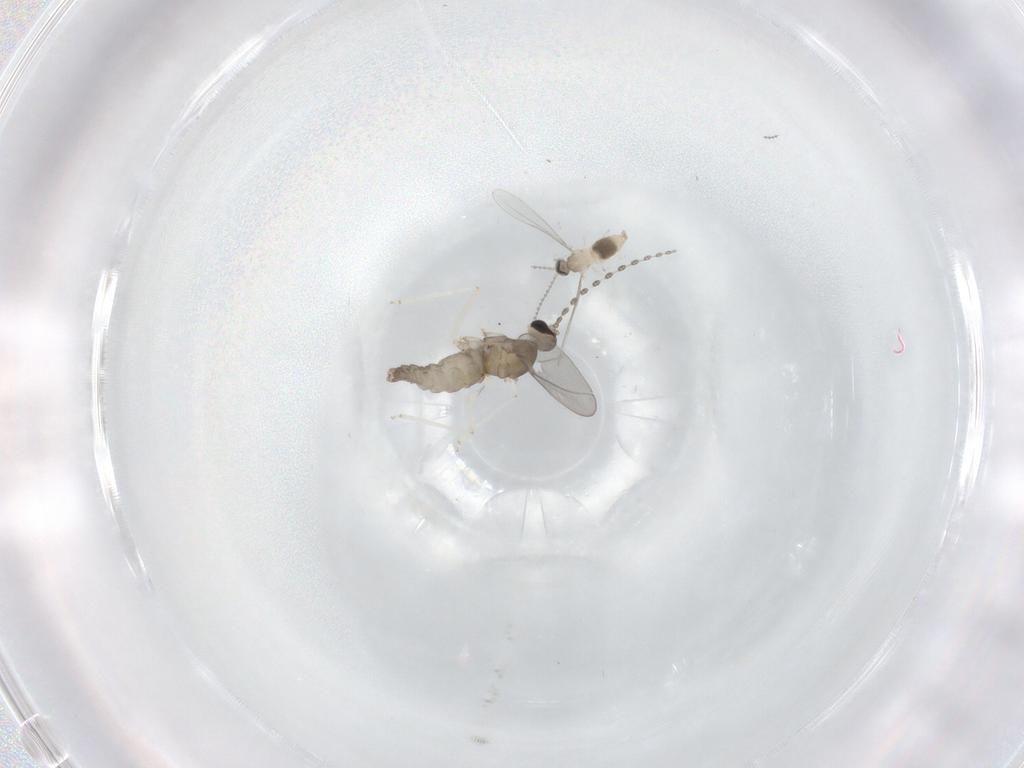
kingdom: Animalia
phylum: Arthropoda
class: Insecta
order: Diptera
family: Cecidomyiidae
